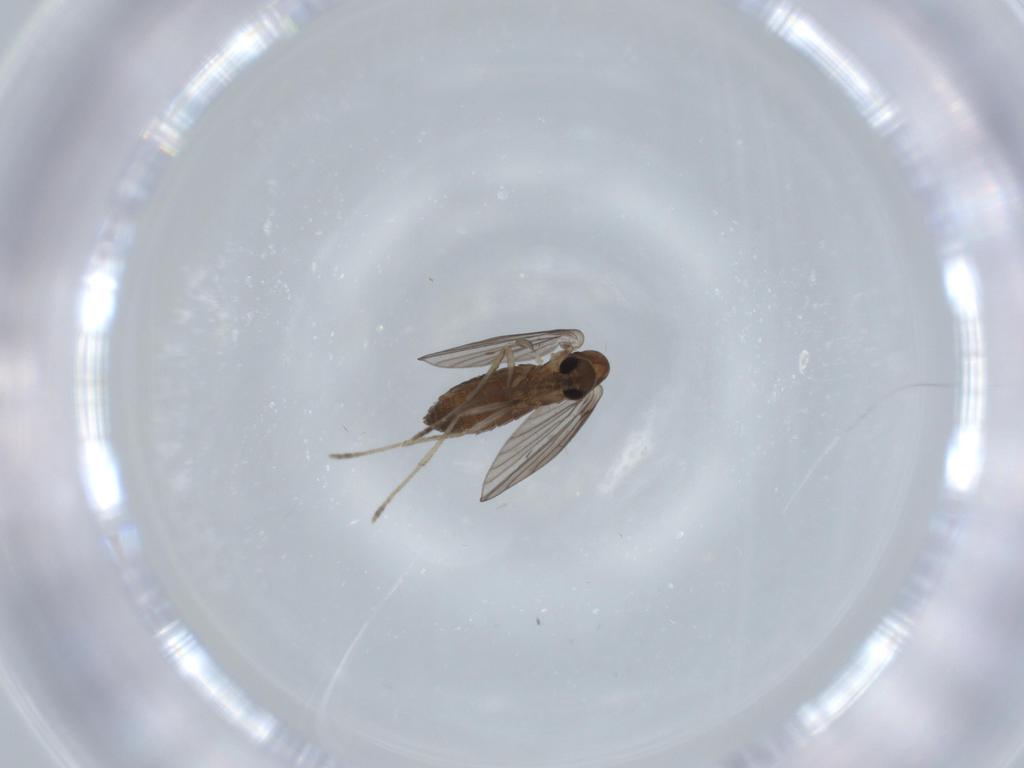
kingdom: Animalia
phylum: Arthropoda
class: Insecta
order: Diptera
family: Psychodidae
